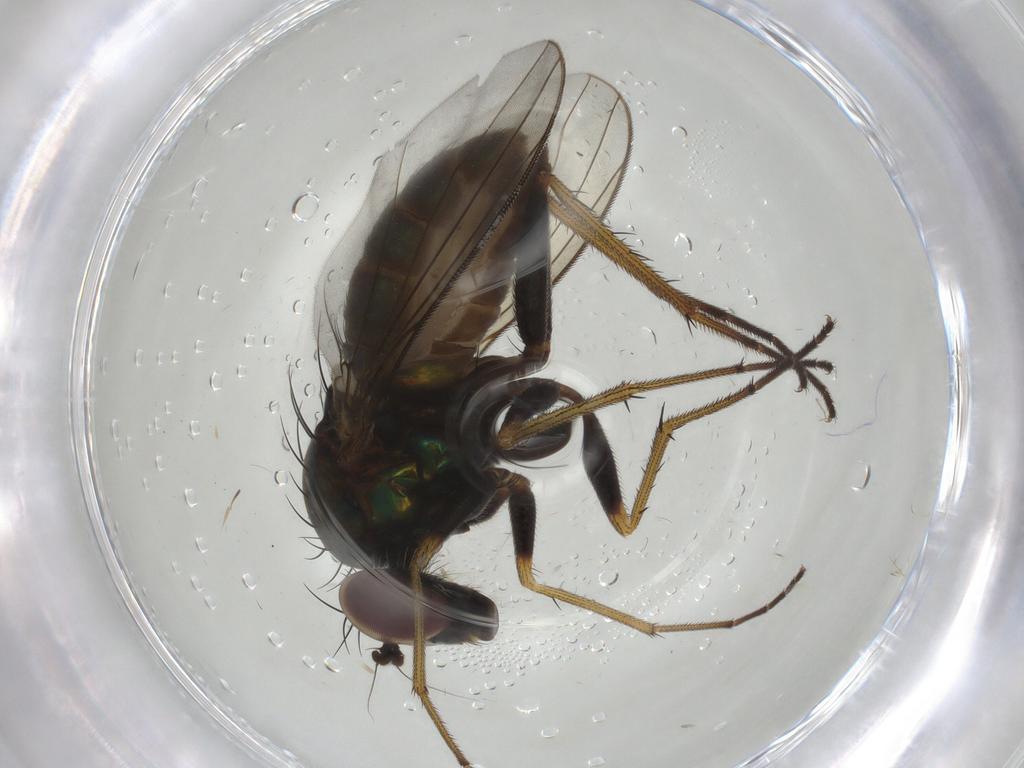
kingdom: Animalia
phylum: Arthropoda
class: Insecta
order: Diptera
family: Dolichopodidae
